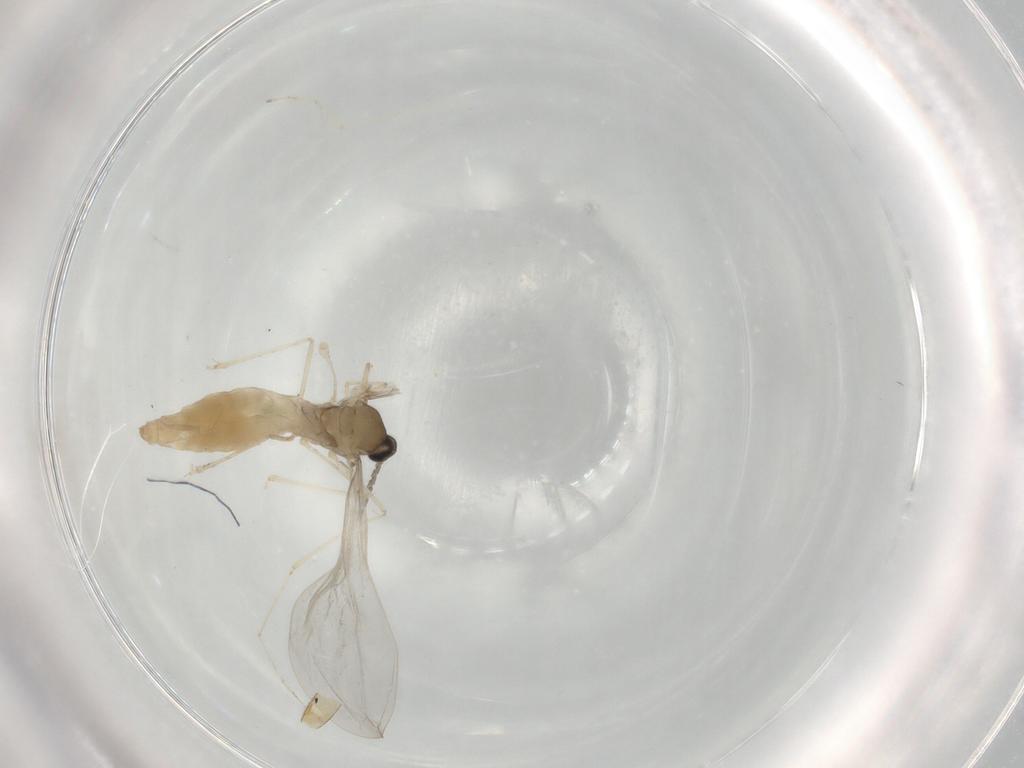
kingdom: Animalia
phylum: Arthropoda
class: Insecta
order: Diptera
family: Cecidomyiidae
